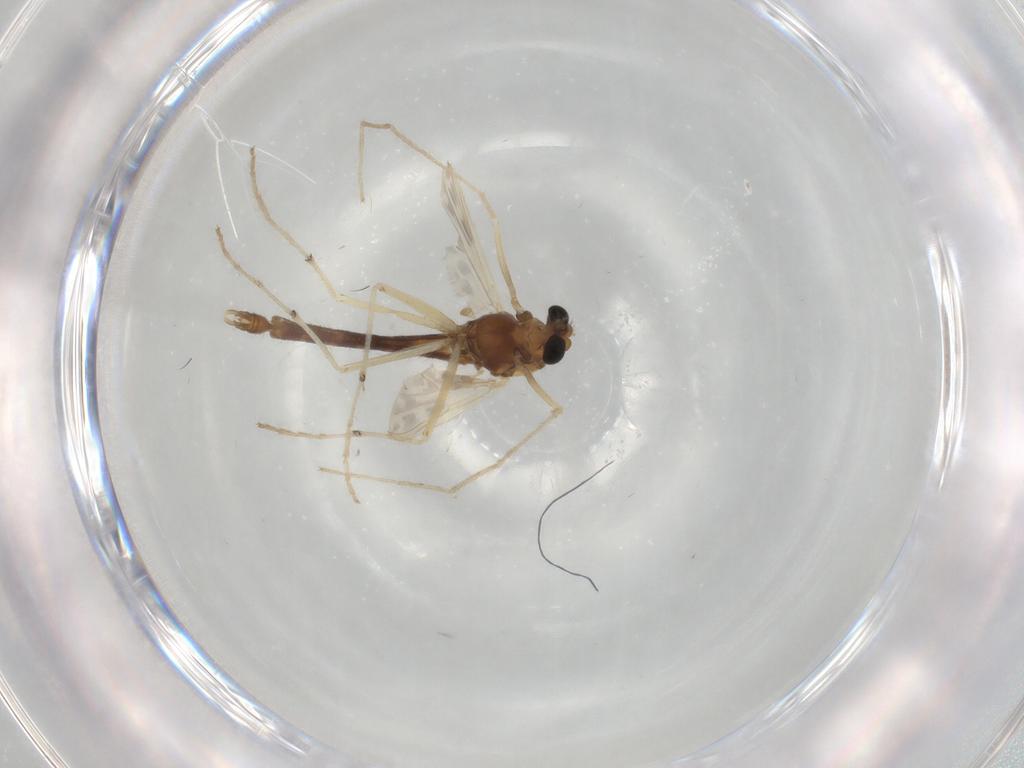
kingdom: Animalia
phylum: Arthropoda
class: Insecta
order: Diptera
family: Chironomidae
